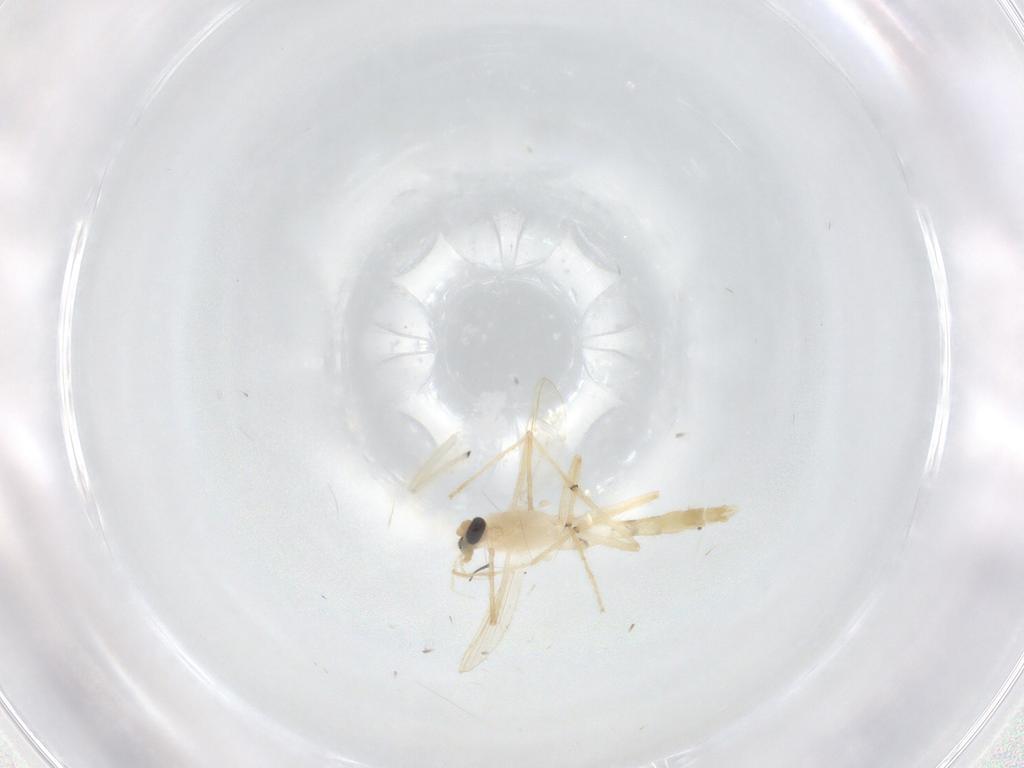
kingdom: Animalia
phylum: Arthropoda
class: Insecta
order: Diptera
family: Chironomidae
